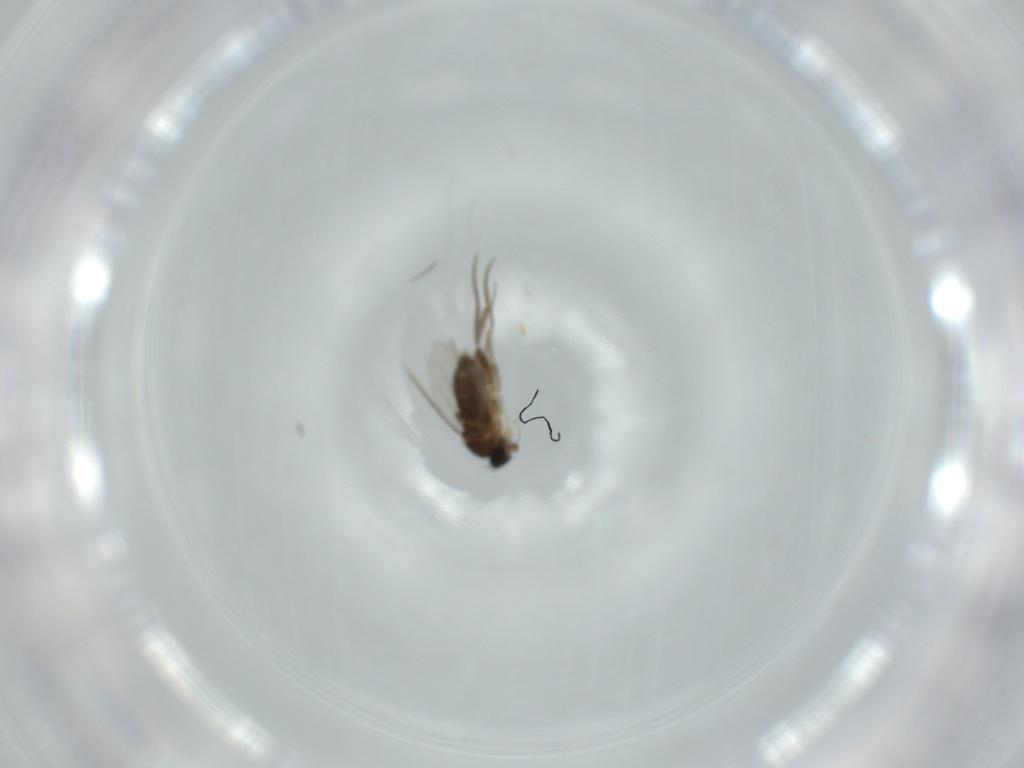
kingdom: Animalia
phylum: Arthropoda
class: Insecta
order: Diptera
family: Phoridae
